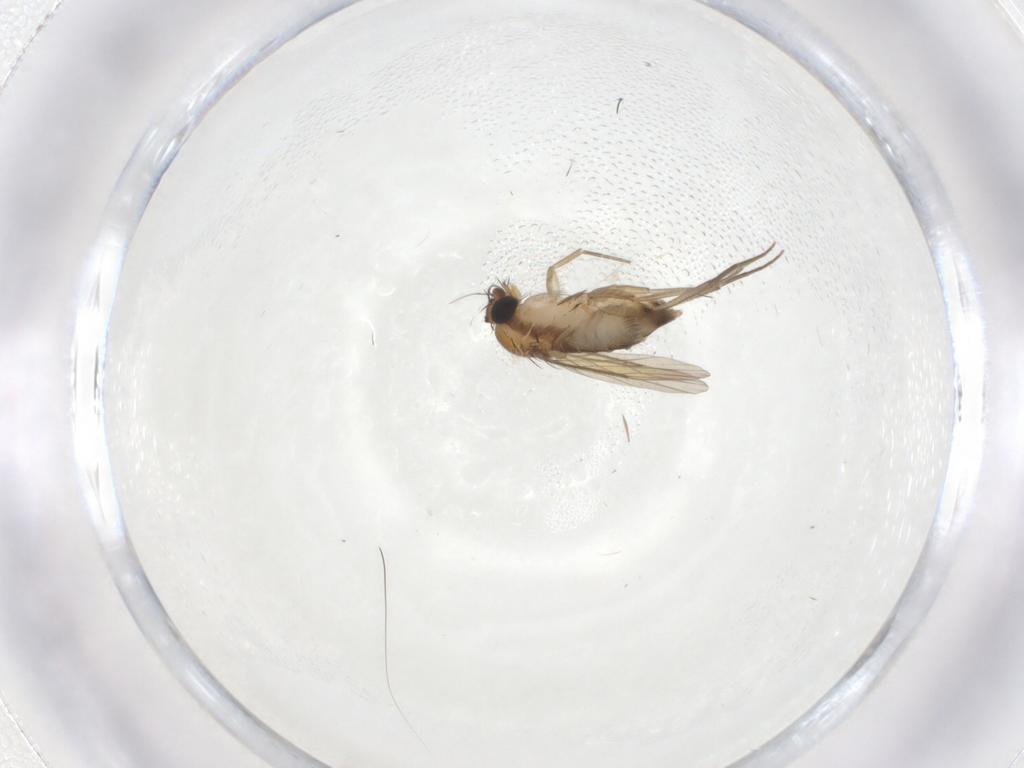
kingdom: Animalia
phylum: Arthropoda
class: Insecta
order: Diptera
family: Phoridae
